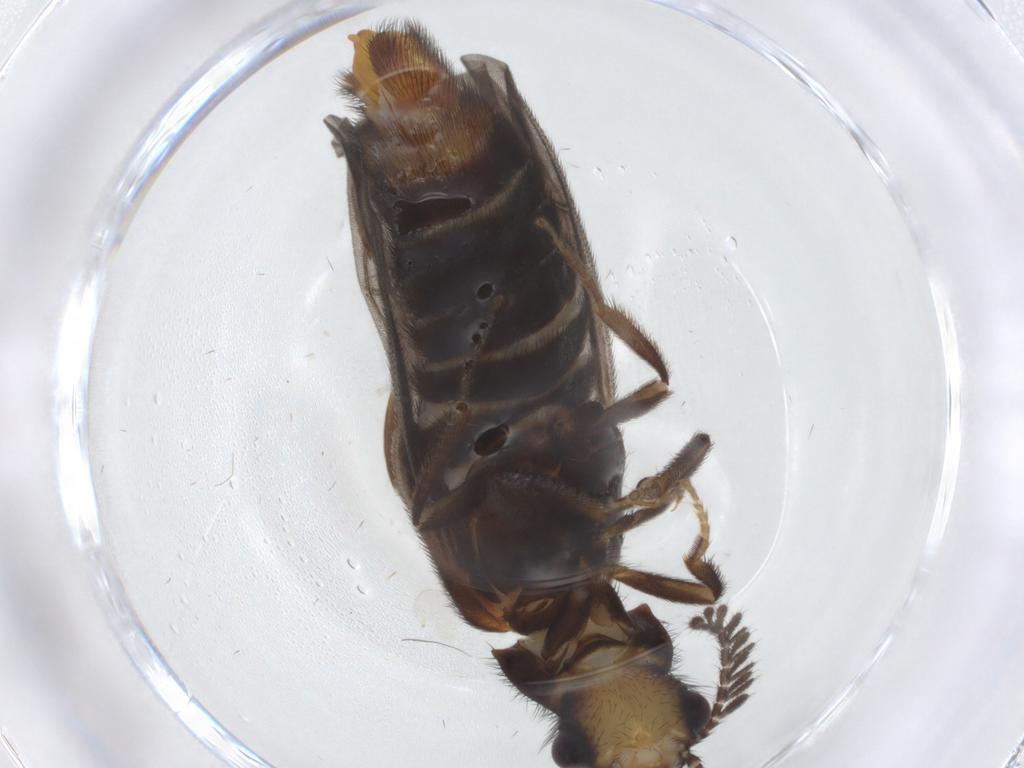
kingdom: Animalia
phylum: Arthropoda
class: Insecta
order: Coleoptera
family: Phengodidae
